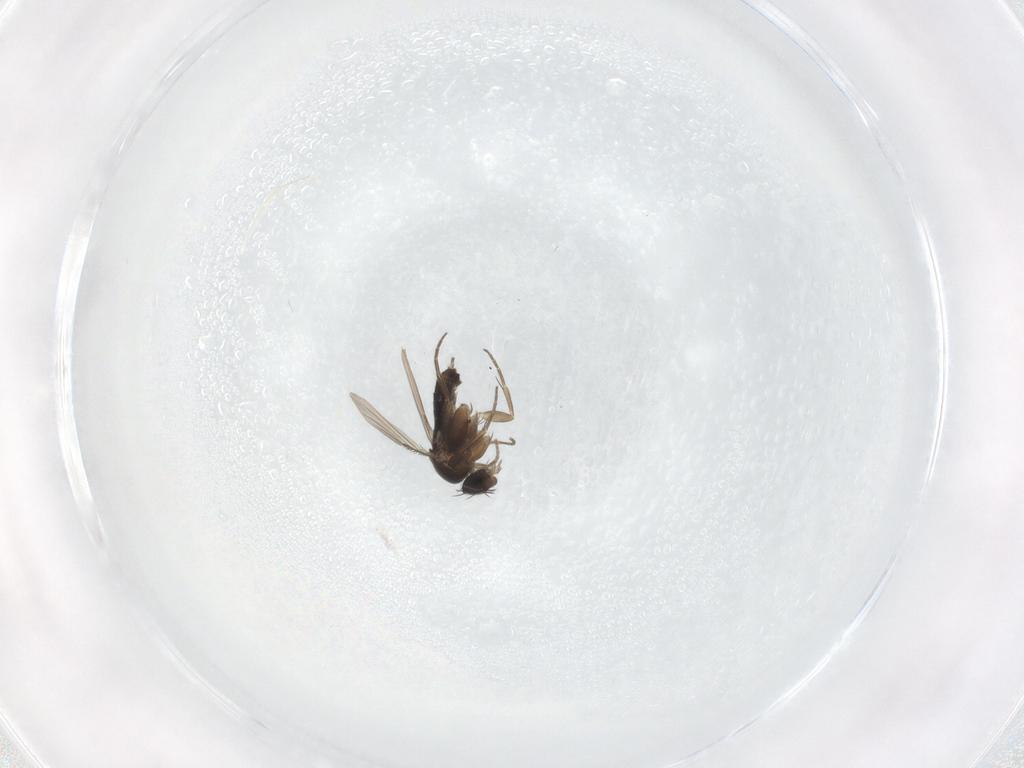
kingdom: Animalia
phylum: Arthropoda
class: Insecta
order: Diptera
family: Phoridae
